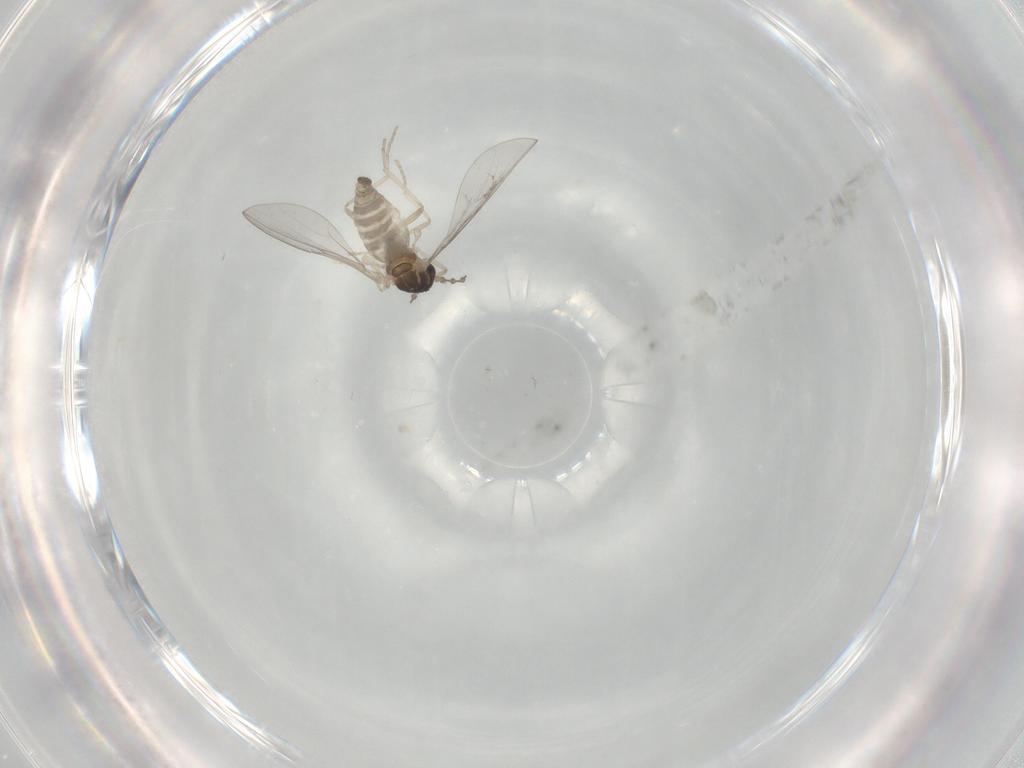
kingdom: Animalia
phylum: Arthropoda
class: Insecta
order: Diptera
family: Cecidomyiidae
